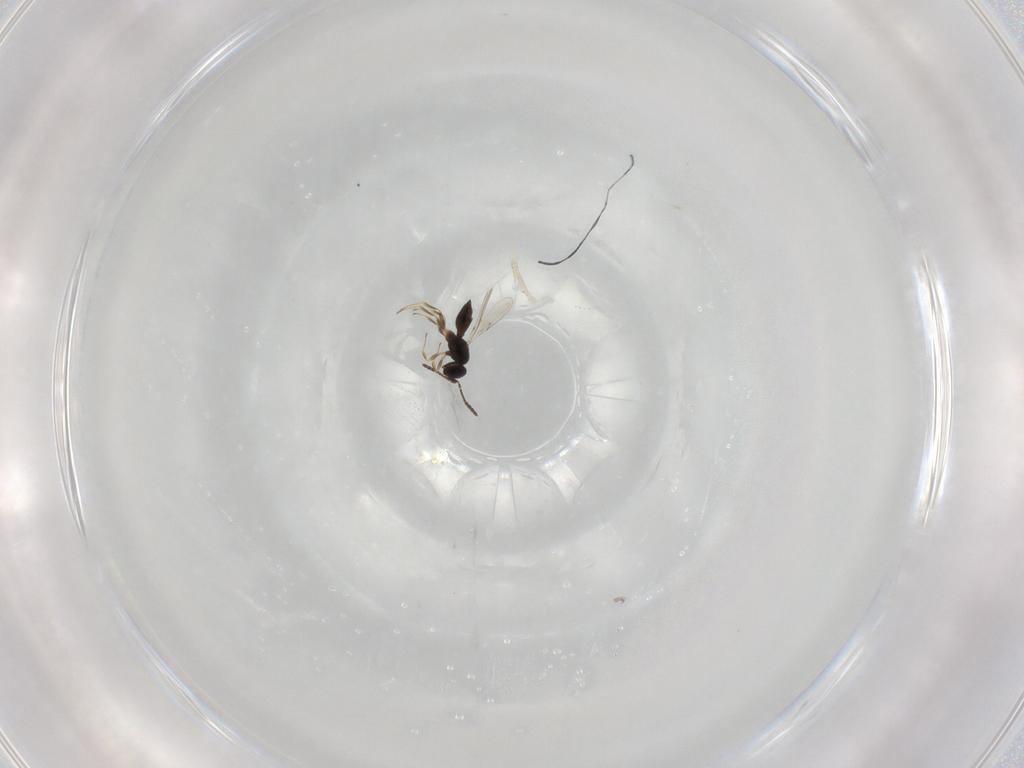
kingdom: Animalia
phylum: Arthropoda
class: Insecta
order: Hymenoptera
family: Scelionidae
